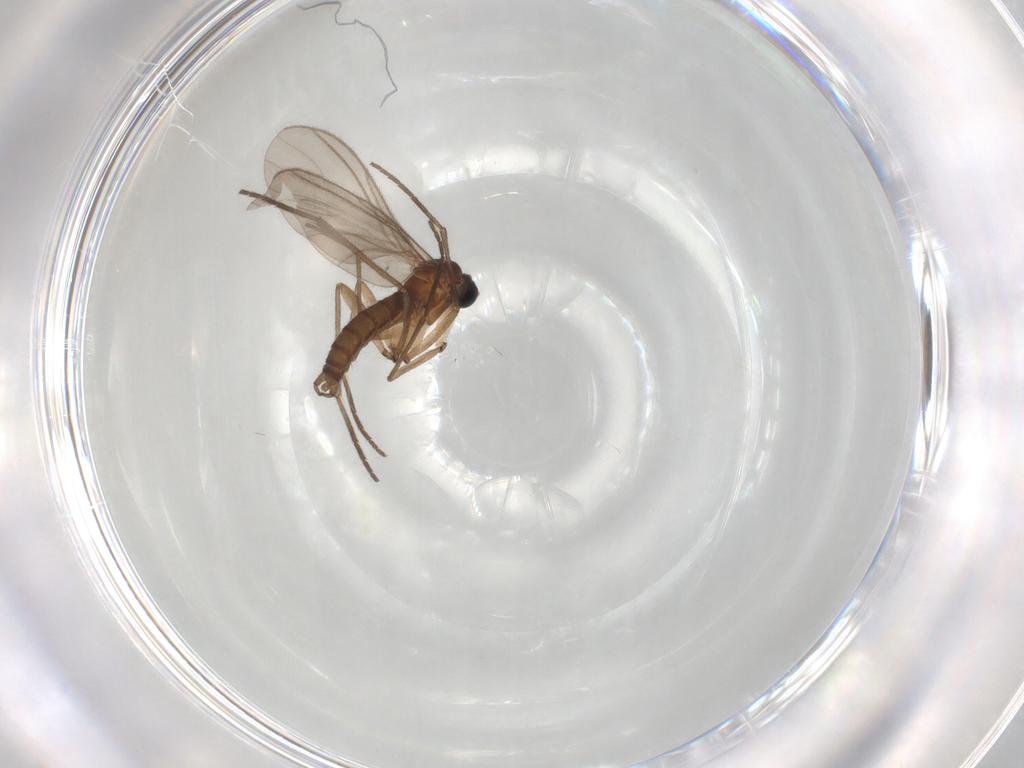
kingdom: Animalia
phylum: Arthropoda
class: Insecta
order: Diptera
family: Sciaridae
